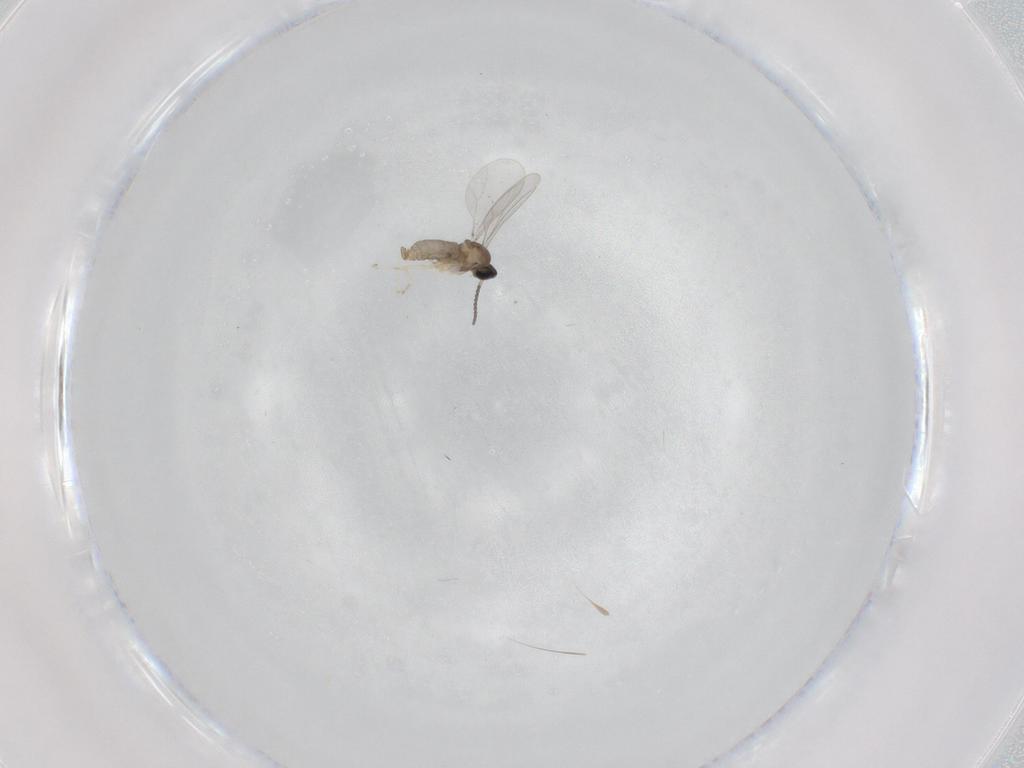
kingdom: Animalia
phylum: Arthropoda
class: Insecta
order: Diptera
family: Cecidomyiidae
